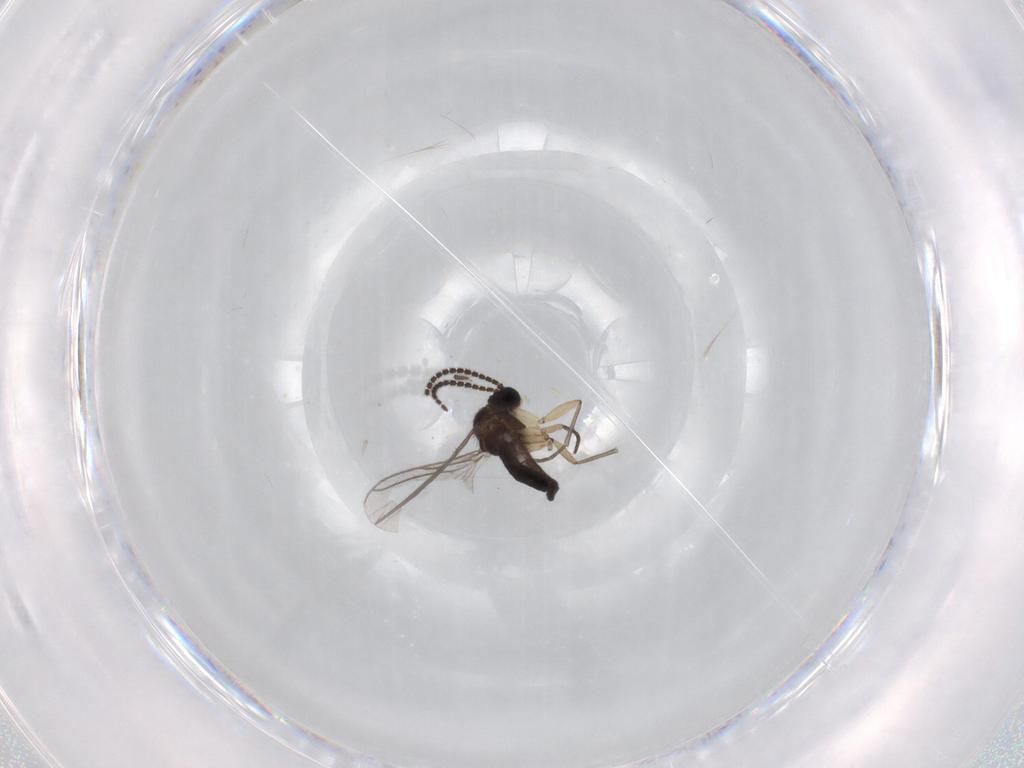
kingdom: Animalia
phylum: Arthropoda
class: Insecta
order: Diptera
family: Sciaridae
